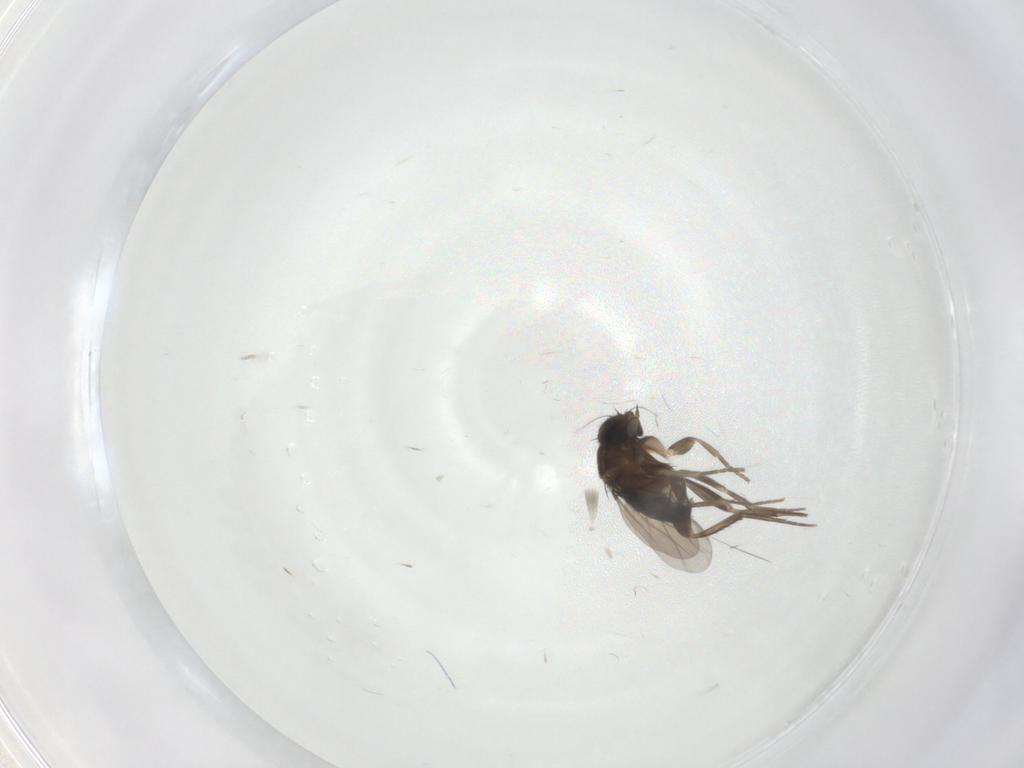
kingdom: Animalia
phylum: Arthropoda
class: Insecta
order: Diptera
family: Phoridae
